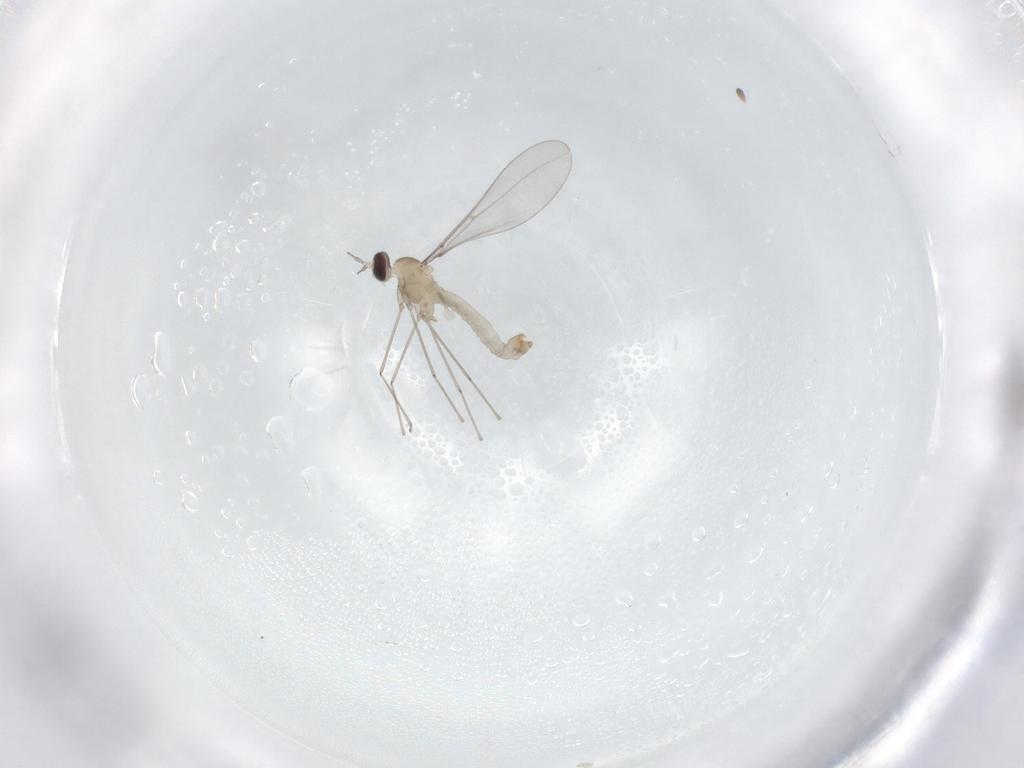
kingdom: Animalia
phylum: Arthropoda
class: Insecta
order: Diptera
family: Cecidomyiidae
